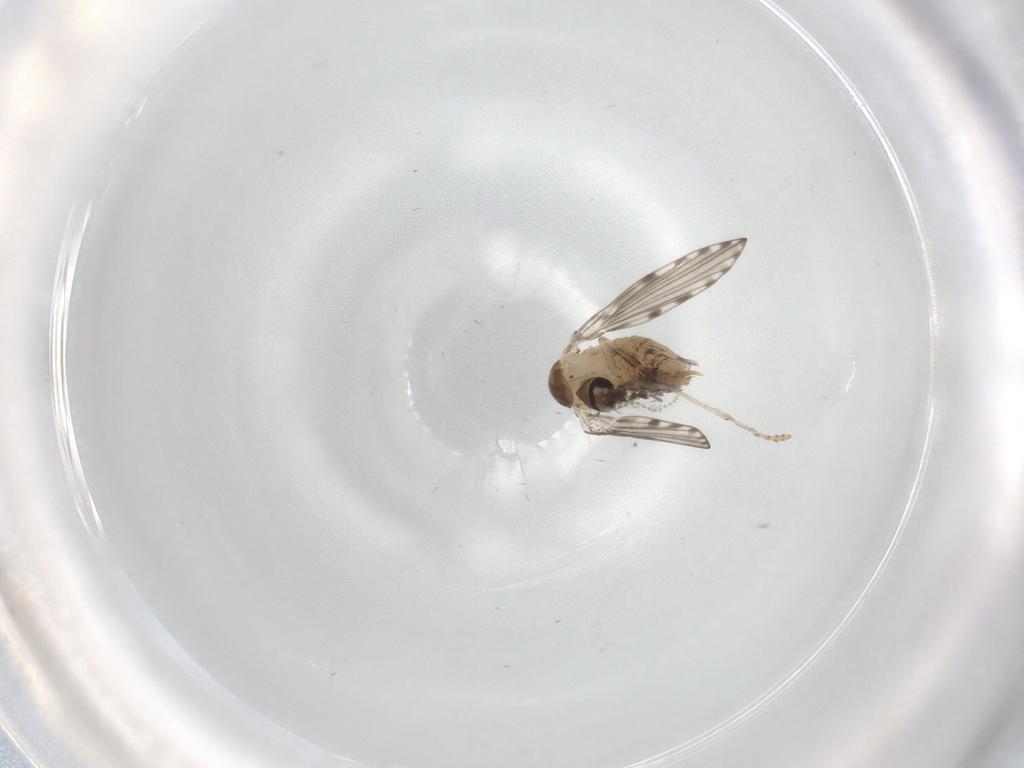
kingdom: Animalia
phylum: Arthropoda
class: Insecta
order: Diptera
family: Psychodidae
